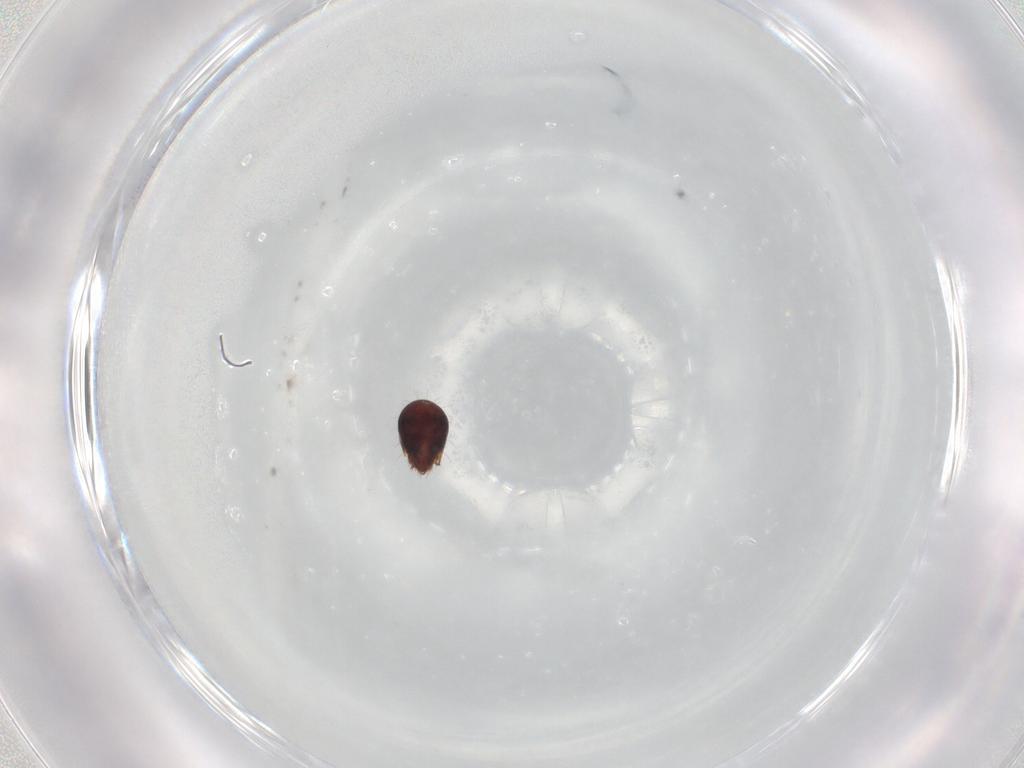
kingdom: Animalia
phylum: Arthropoda
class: Arachnida
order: Sarcoptiformes
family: Humerobatidae
